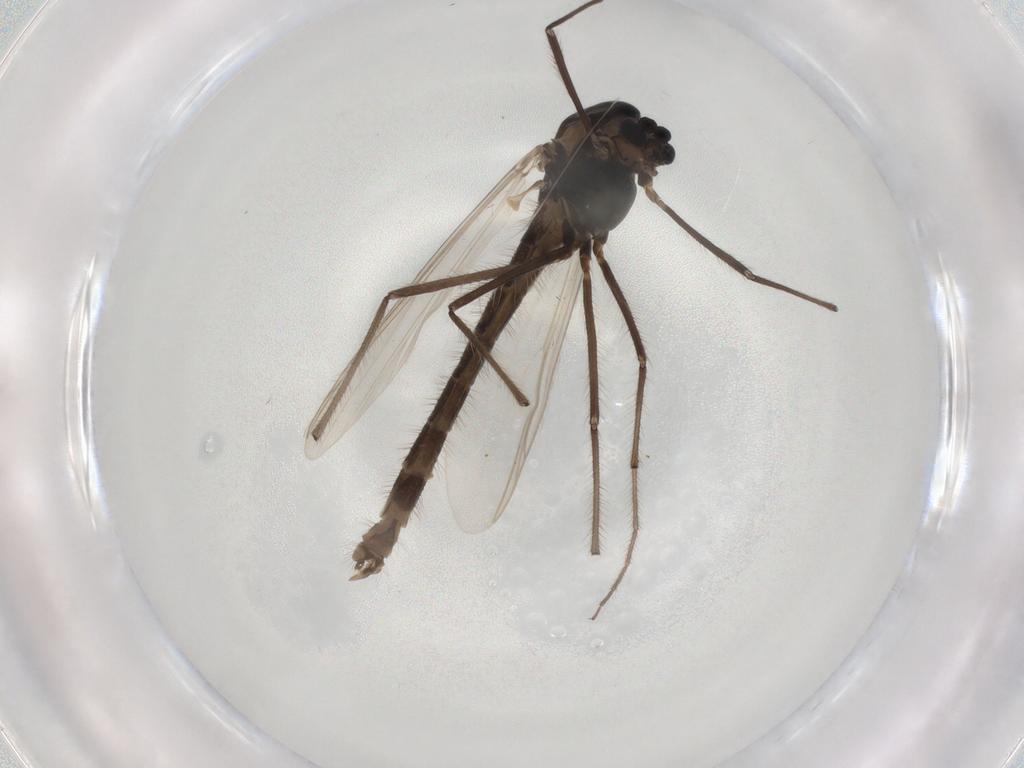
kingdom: Animalia
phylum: Arthropoda
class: Insecta
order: Diptera
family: Chironomidae
